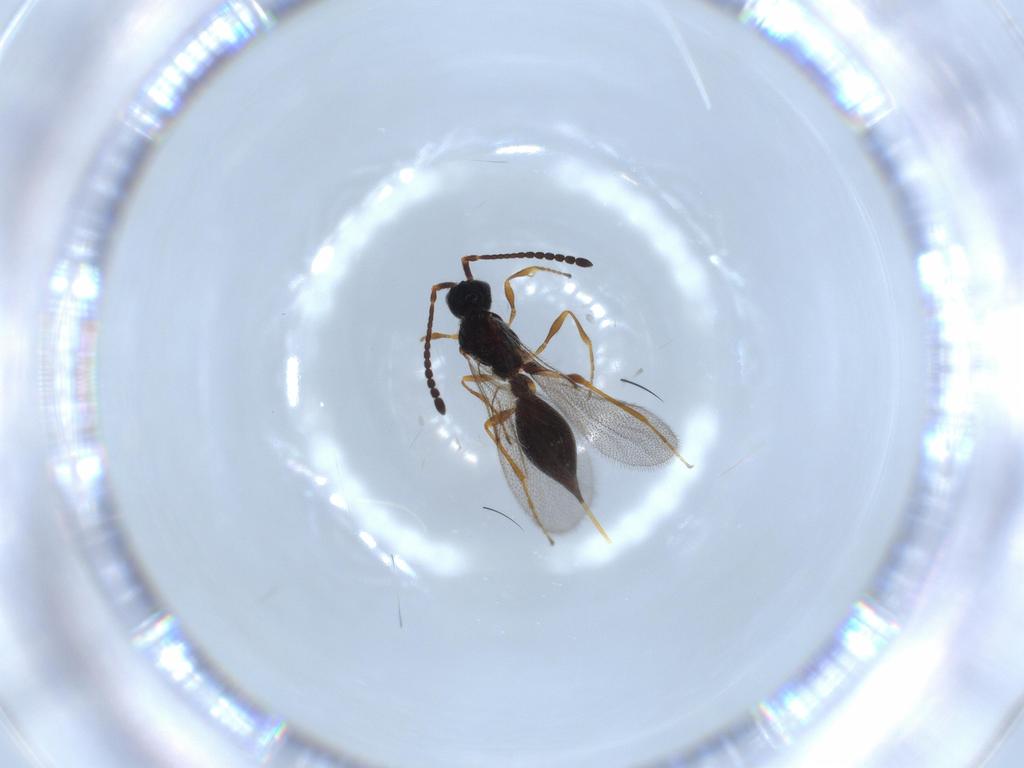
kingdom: Animalia
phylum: Arthropoda
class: Insecta
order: Hymenoptera
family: Diapriidae
